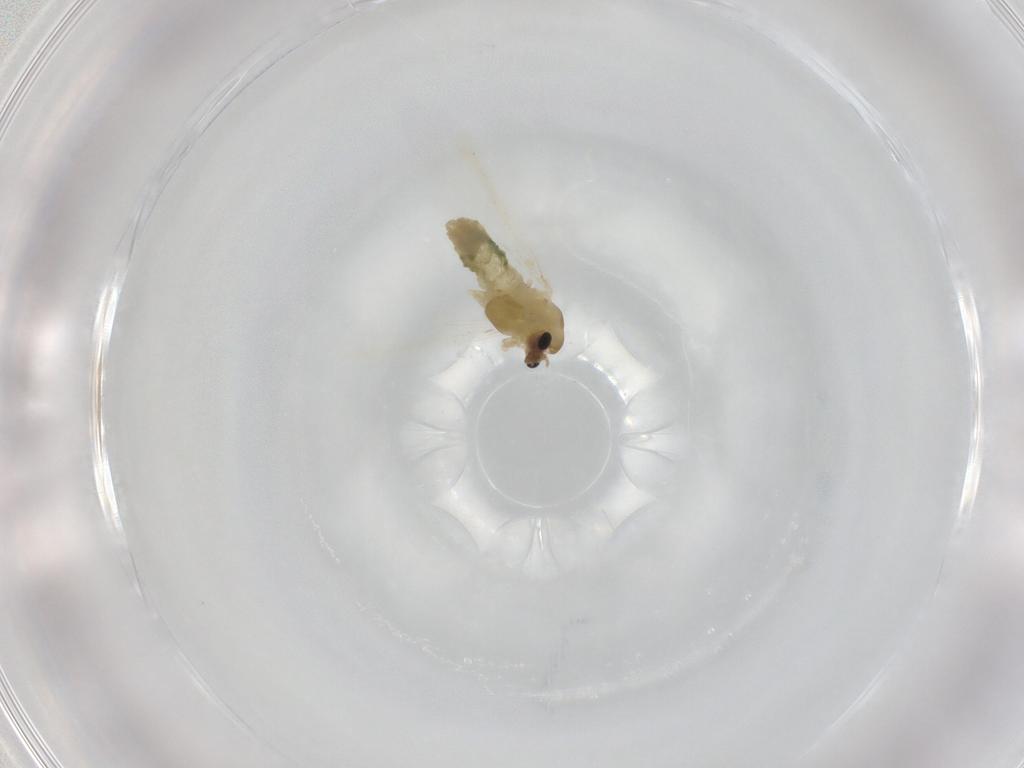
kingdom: Animalia
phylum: Arthropoda
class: Insecta
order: Diptera
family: Chironomidae
